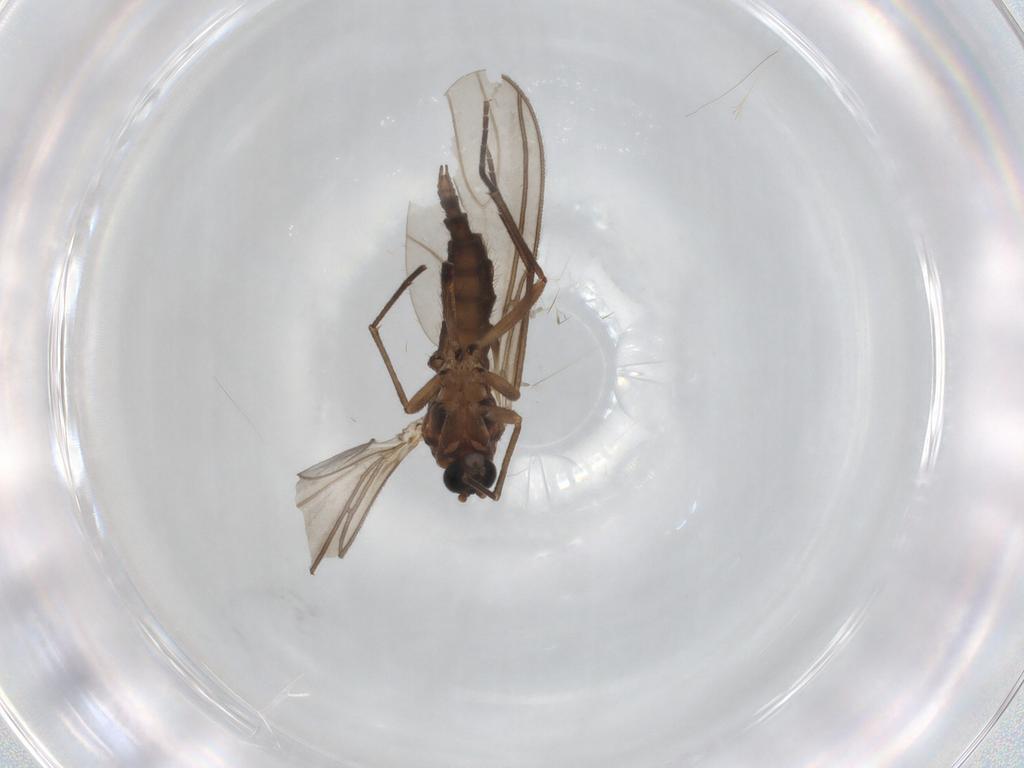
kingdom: Animalia
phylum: Arthropoda
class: Insecta
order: Diptera
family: Sciaridae
